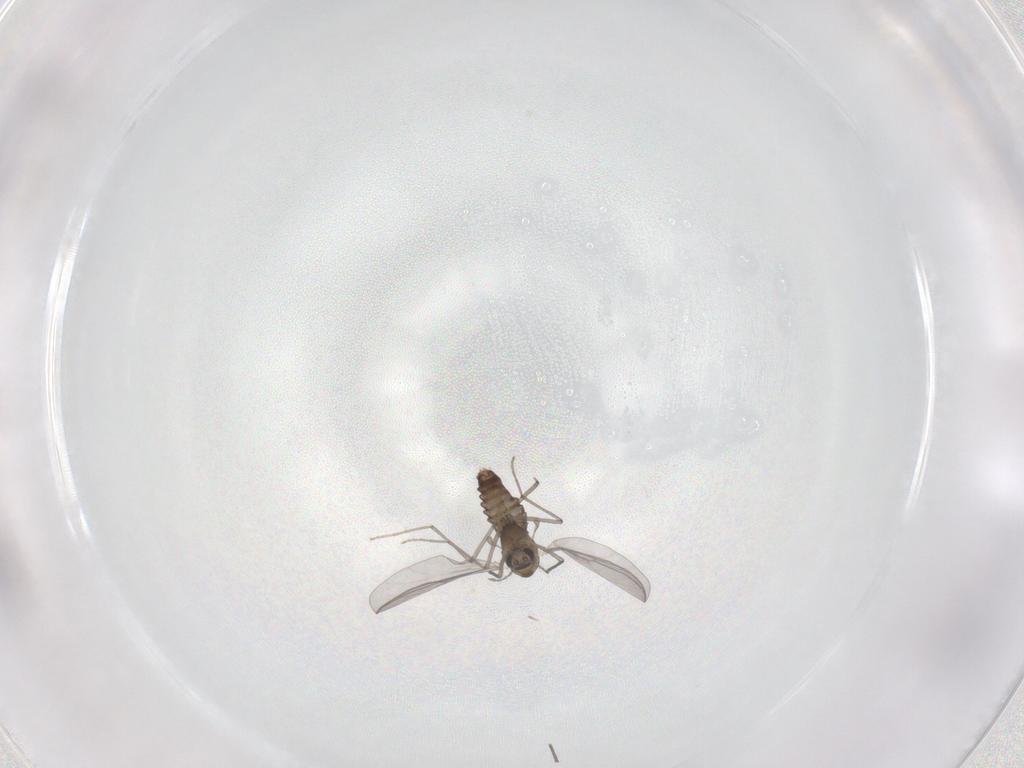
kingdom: Animalia
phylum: Arthropoda
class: Insecta
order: Diptera
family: Chironomidae
